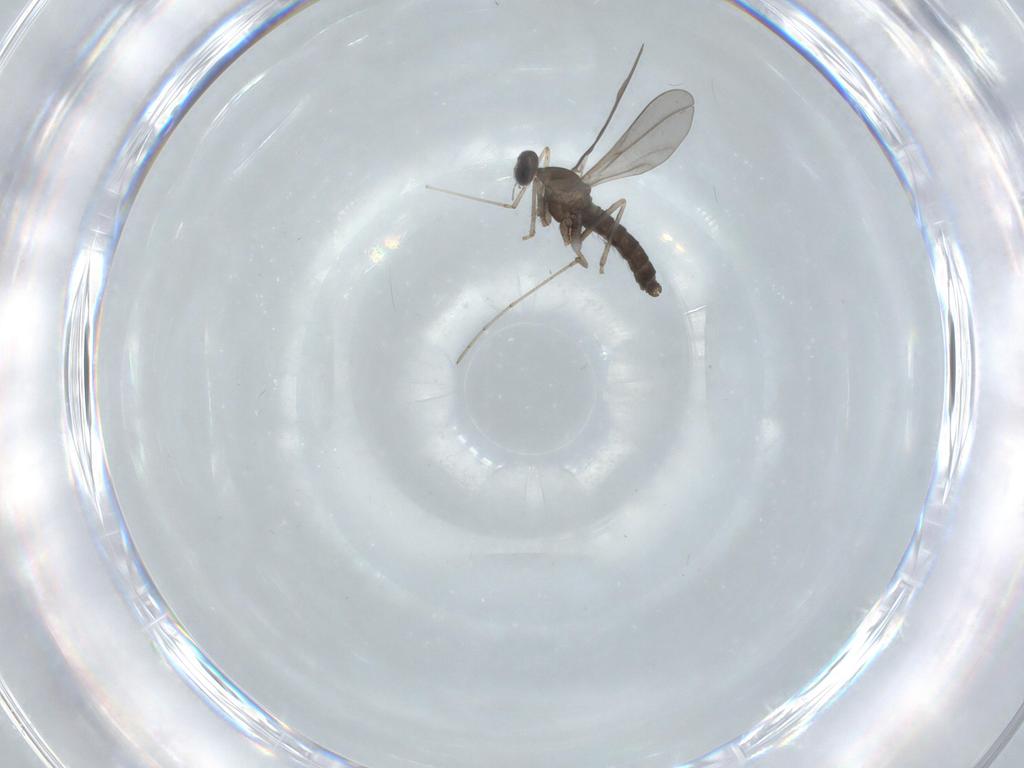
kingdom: Animalia
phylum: Arthropoda
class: Insecta
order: Diptera
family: Cecidomyiidae
